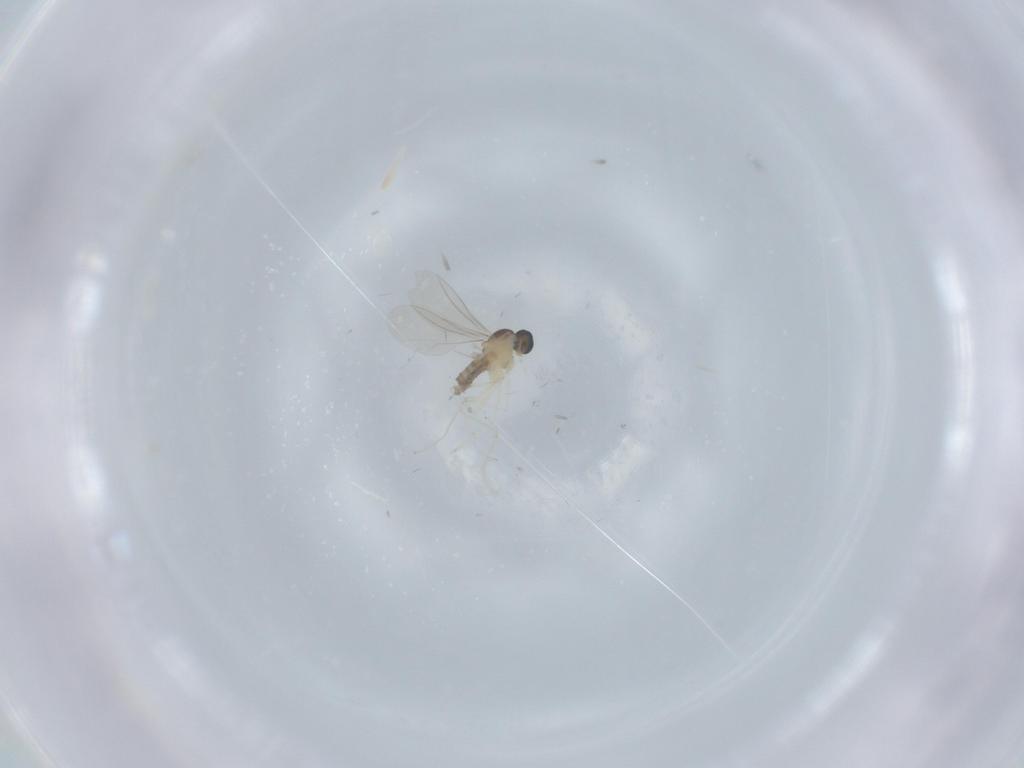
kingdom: Animalia
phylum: Arthropoda
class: Insecta
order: Diptera
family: Cecidomyiidae
